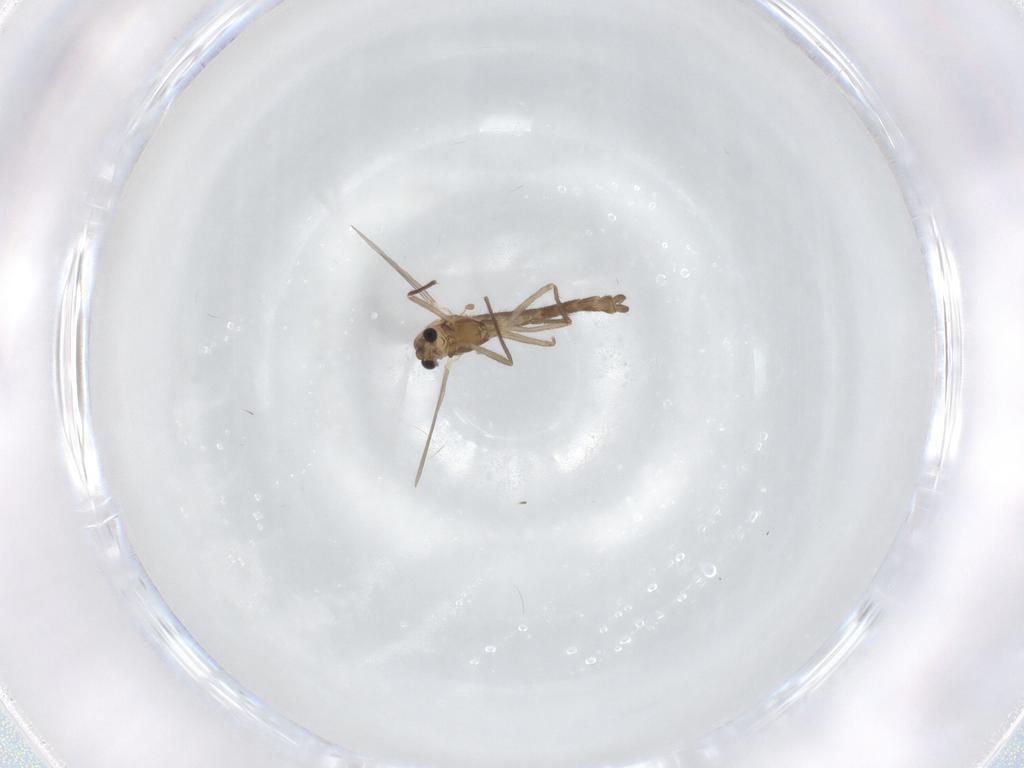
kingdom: Animalia
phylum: Arthropoda
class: Insecta
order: Diptera
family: Chironomidae
